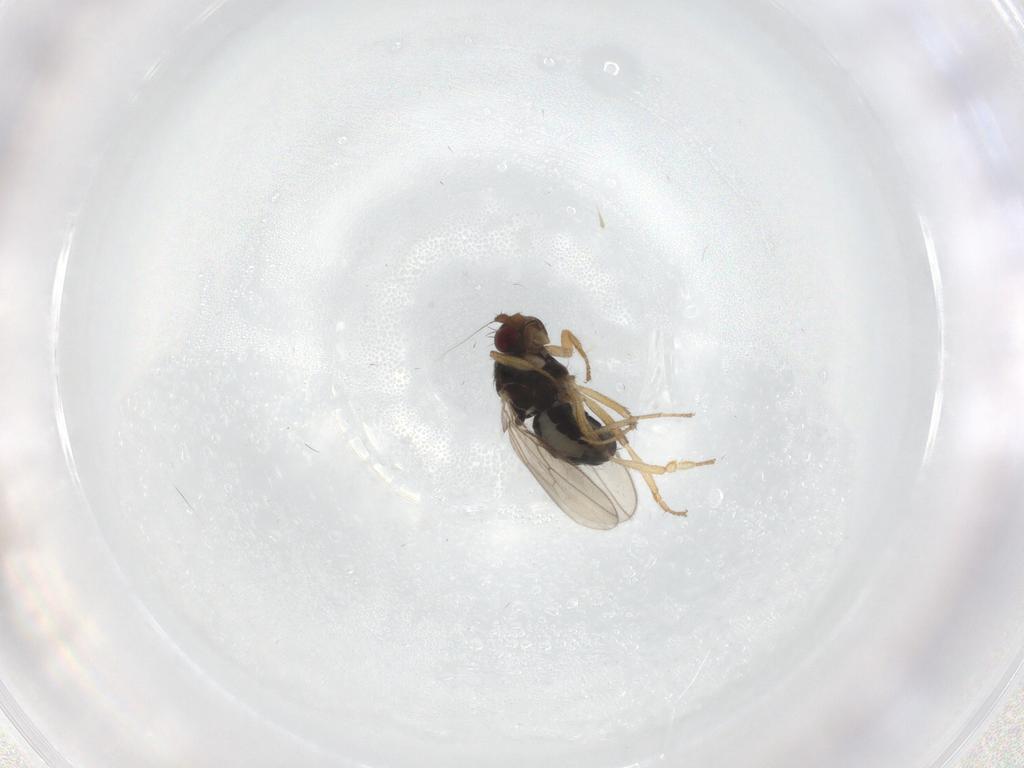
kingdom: Animalia
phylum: Arthropoda
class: Insecta
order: Diptera
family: Sphaeroceridae
